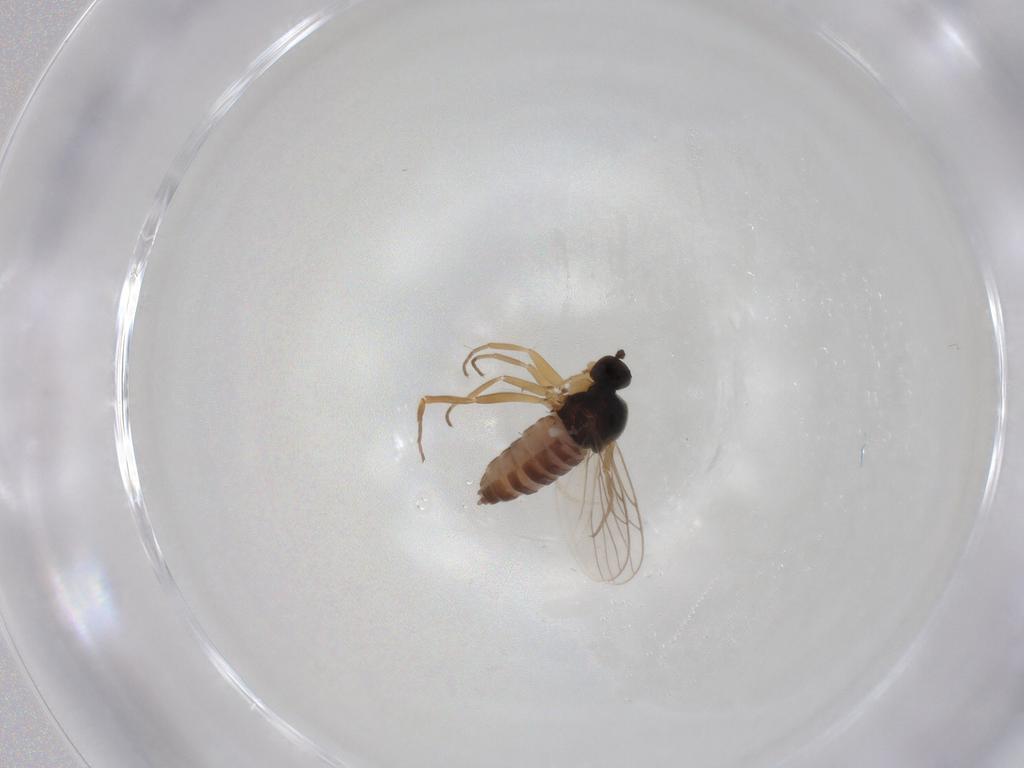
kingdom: Animalia
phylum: Arthropoda
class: Insecta
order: Diptera
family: Hybotidae
